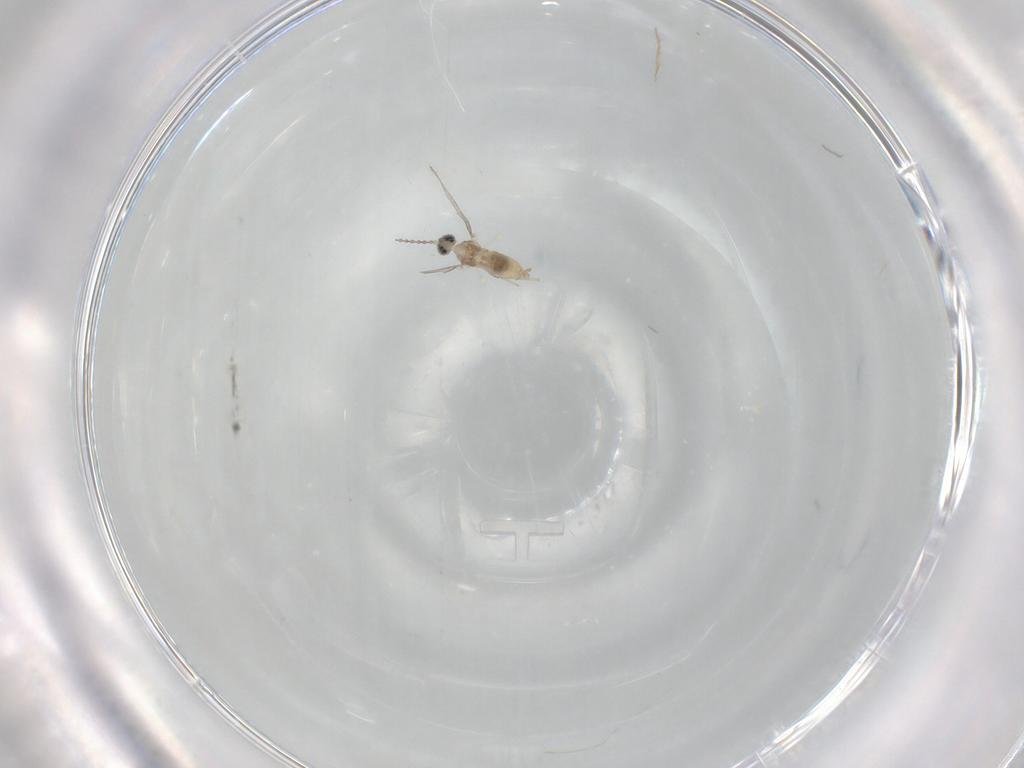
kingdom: Animalia
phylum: Arthropoda
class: Insecta
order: Diptera
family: Cecidomyiidae
